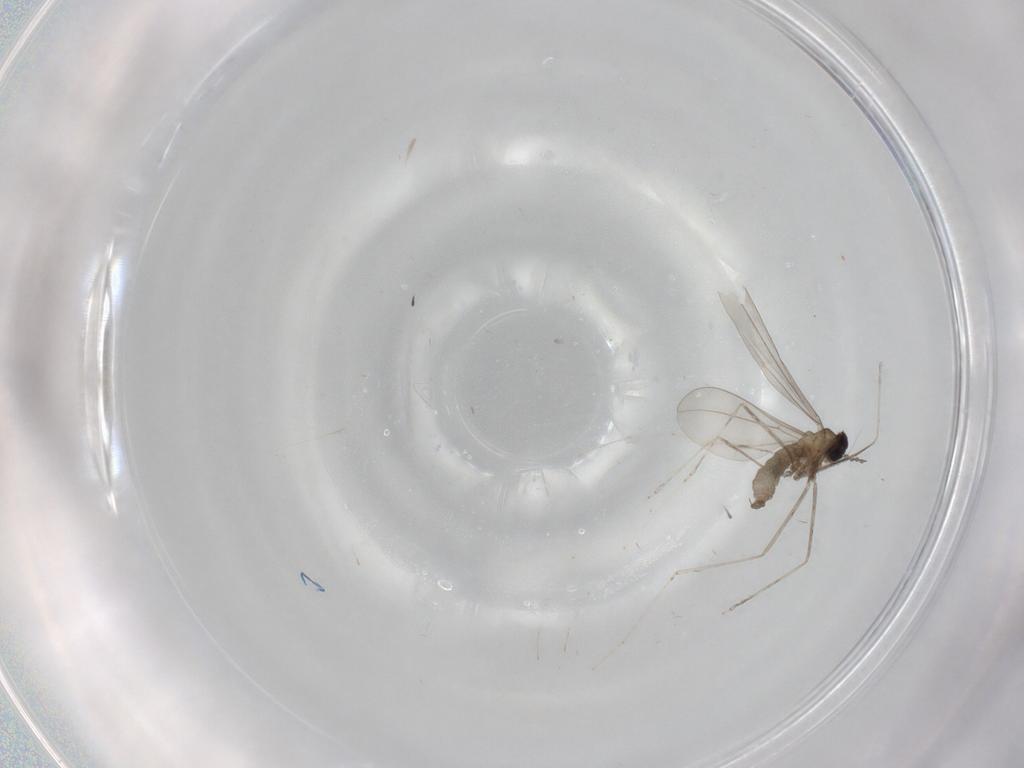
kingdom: Animalia
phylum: Arthropoda
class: Insecta
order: Diptera
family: Cecidomyiidae
